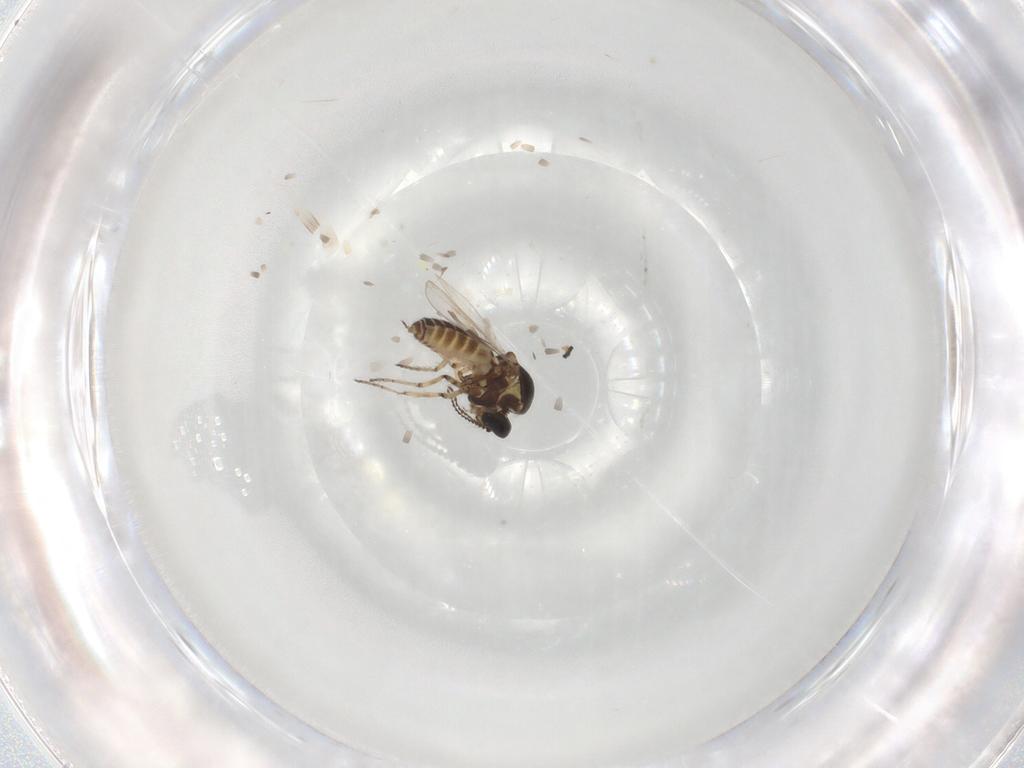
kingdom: Animalia
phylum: Arthropoda
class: Insecta
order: Diptera
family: Ceratopogonidae
